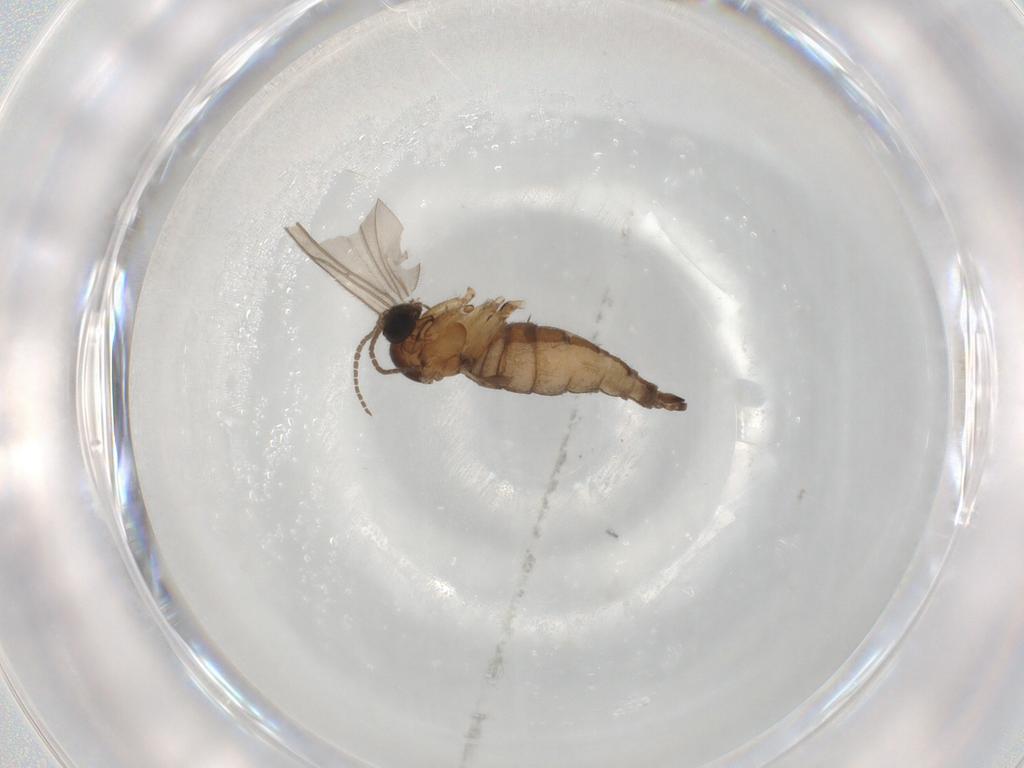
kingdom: Animalia
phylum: Arthropoda
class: Insecta
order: Diptera
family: Sciaridae
